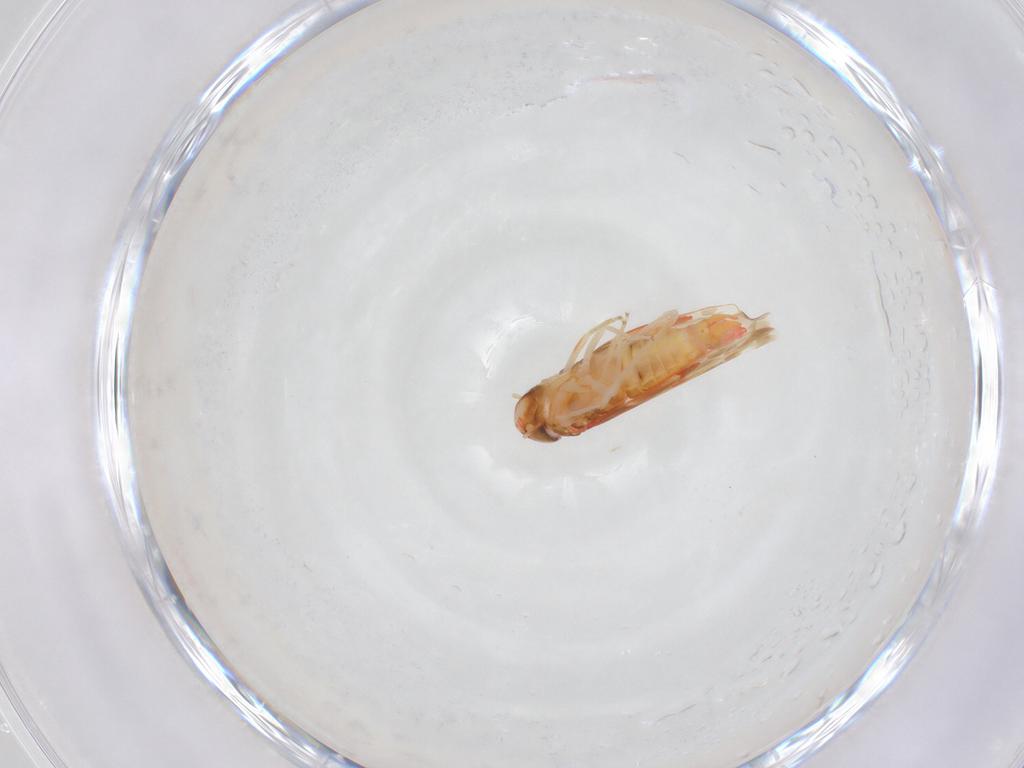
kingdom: Animalia
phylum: Arthropoda
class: Insecta
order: Hemiptera
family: Cicadellidae
